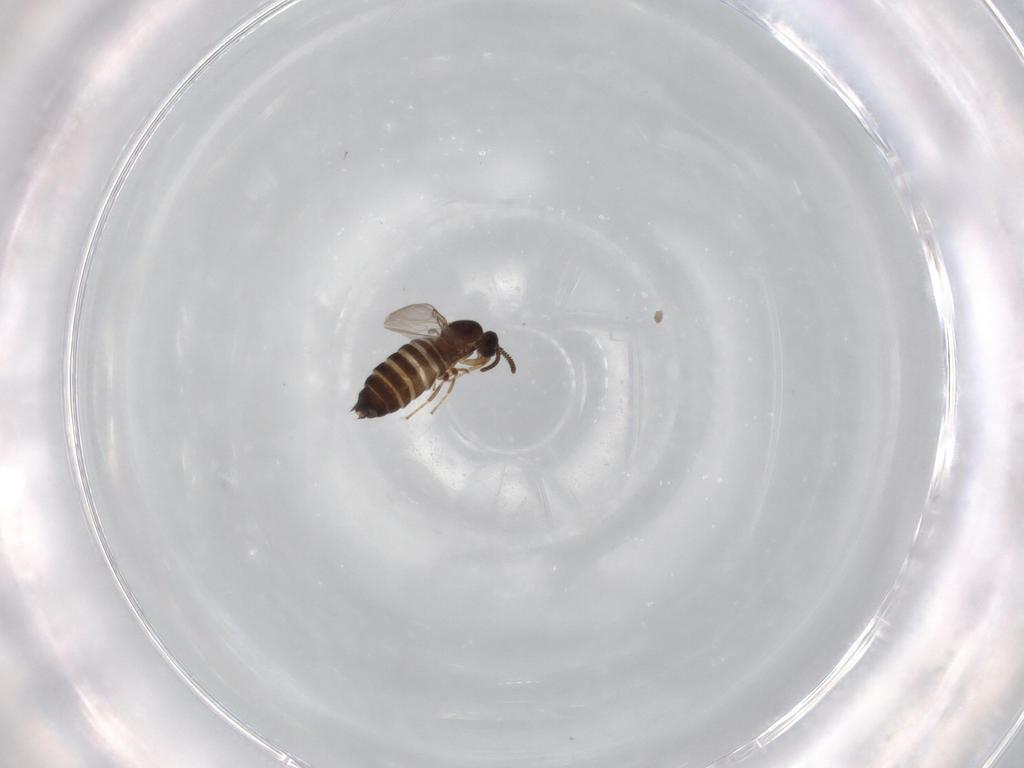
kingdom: Animalia
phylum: Arthropoda
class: Insecta
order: Diptera
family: Scatopsidae
